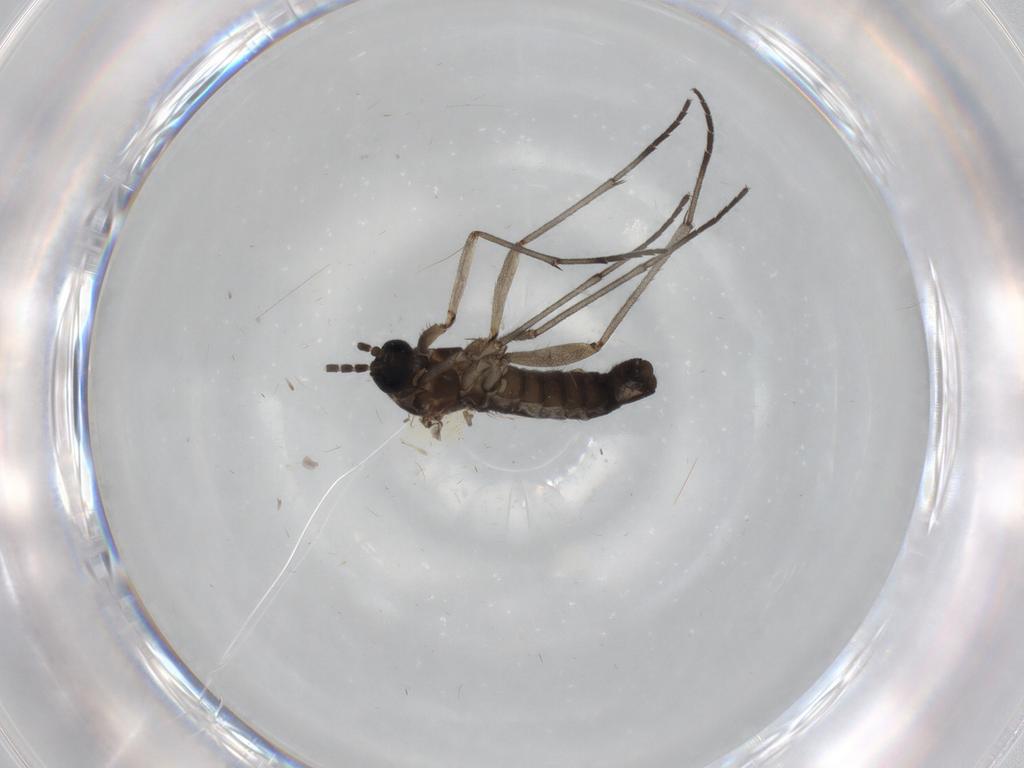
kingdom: Animalia
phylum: Arthropoda
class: Insecta
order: Diptera
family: Sciaridae
